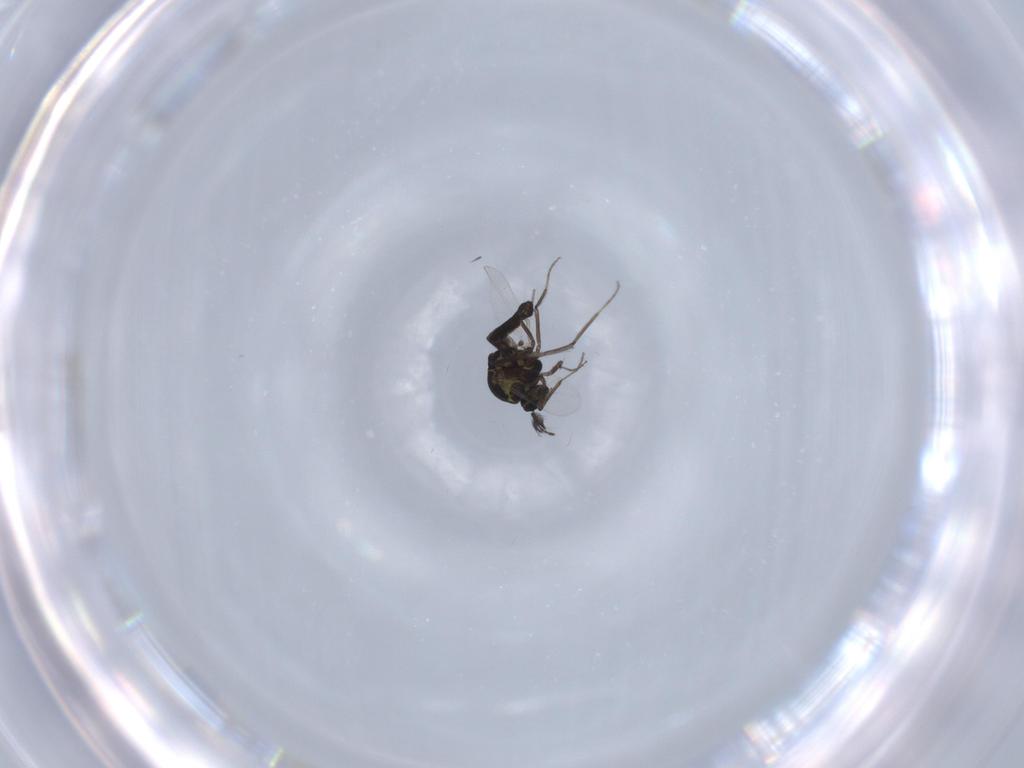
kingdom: Animalia
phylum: Arthropoda
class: Insecta
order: Diptera
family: Ceratopogonidae
